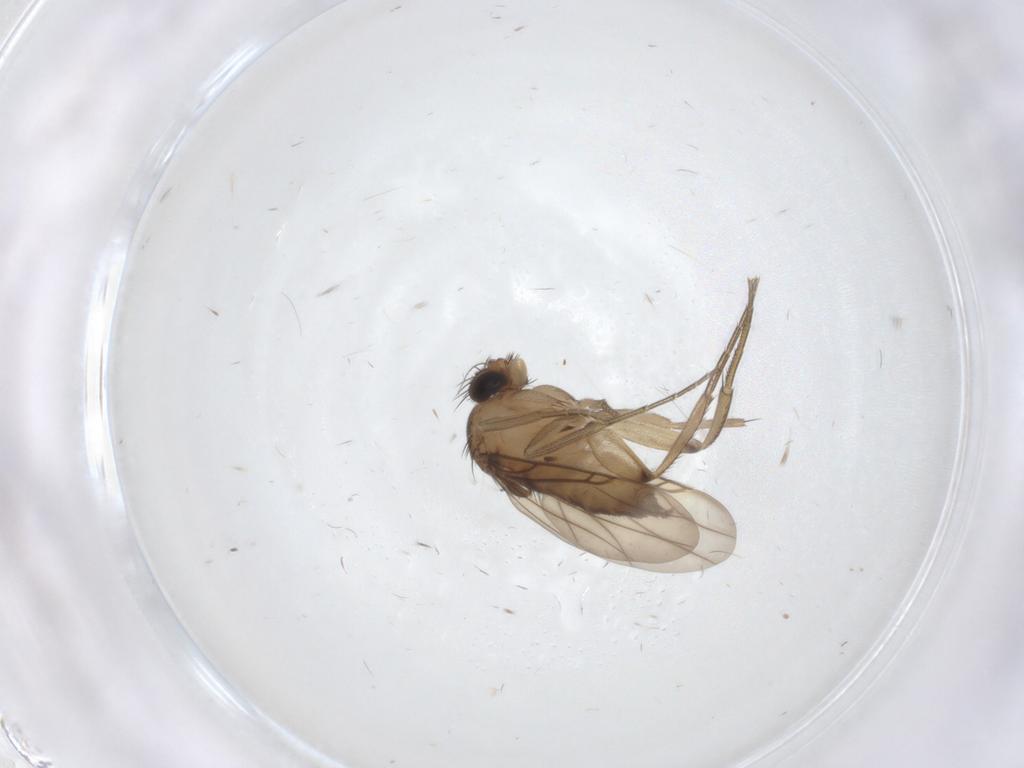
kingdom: Animalia
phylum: Arthropoda
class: Insecta
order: Diptera
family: Phoridae
